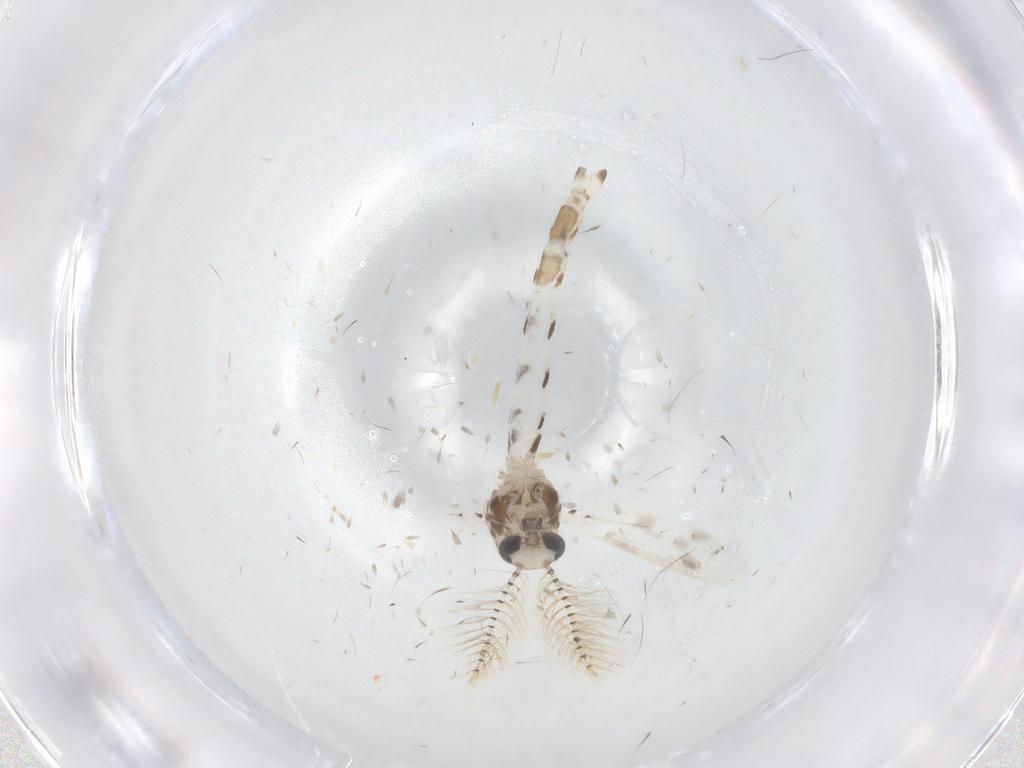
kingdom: Animalia
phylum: Arthropoda
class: Insecta
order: Diptera
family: Corethrellidae
